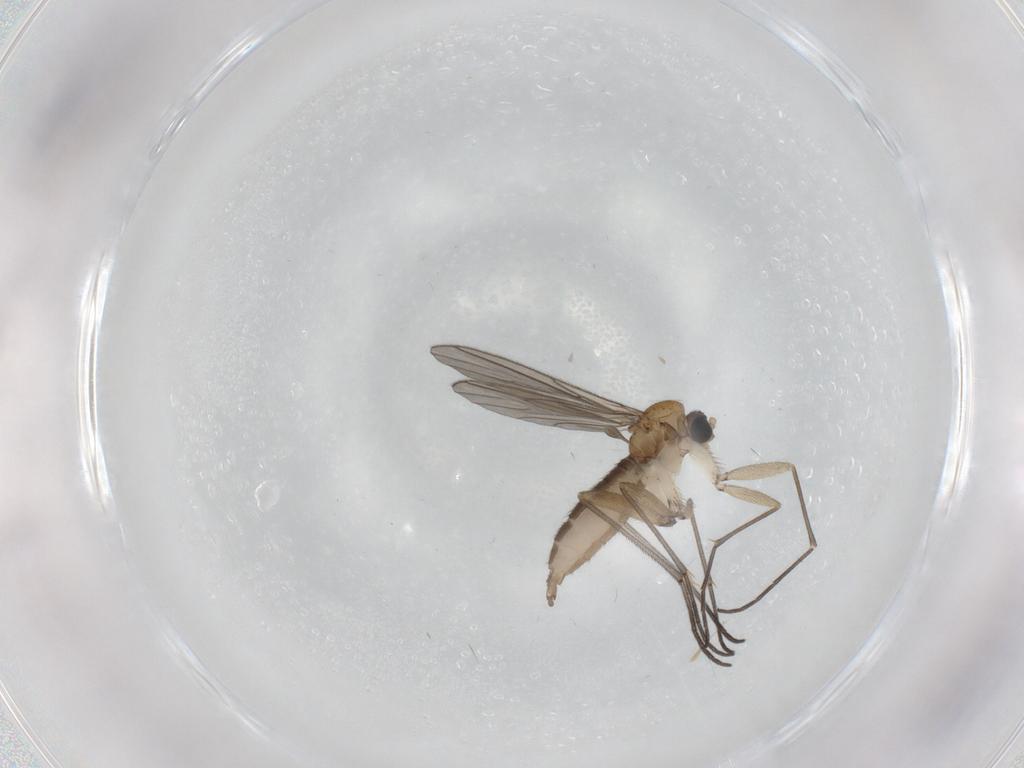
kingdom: Animalia
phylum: Arthropoda
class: Insecta
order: Diptera
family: Sciaridae
